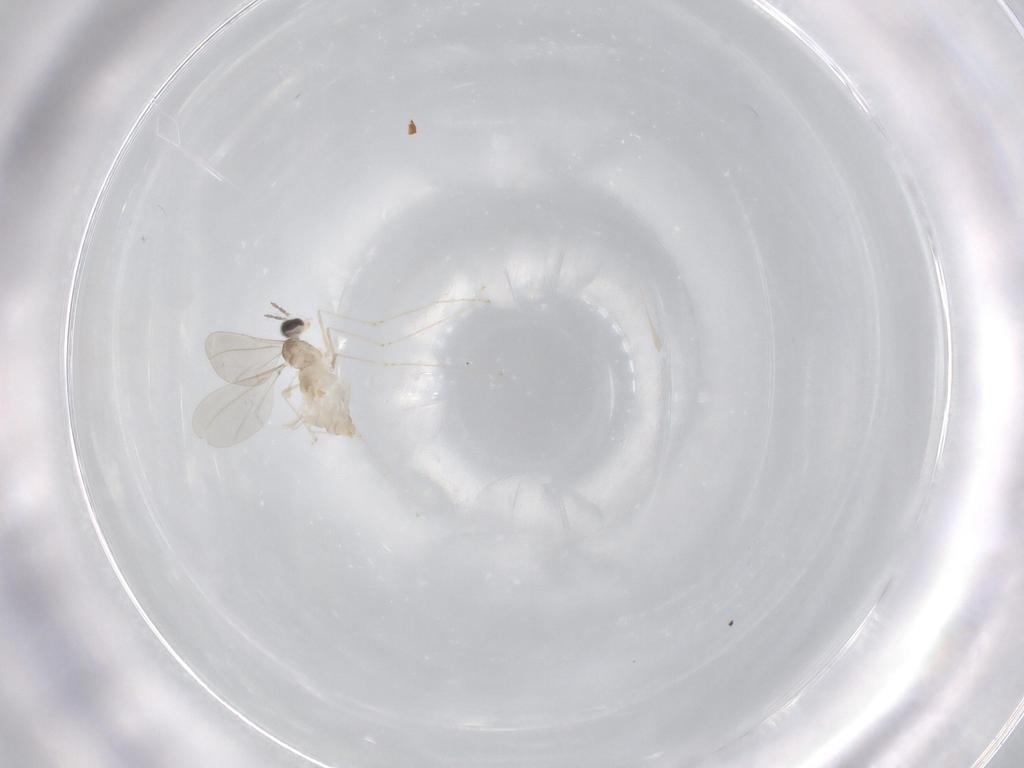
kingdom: Animalia
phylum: Arthropoda
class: Insecta
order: Diptera
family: Cecidomyiidae
